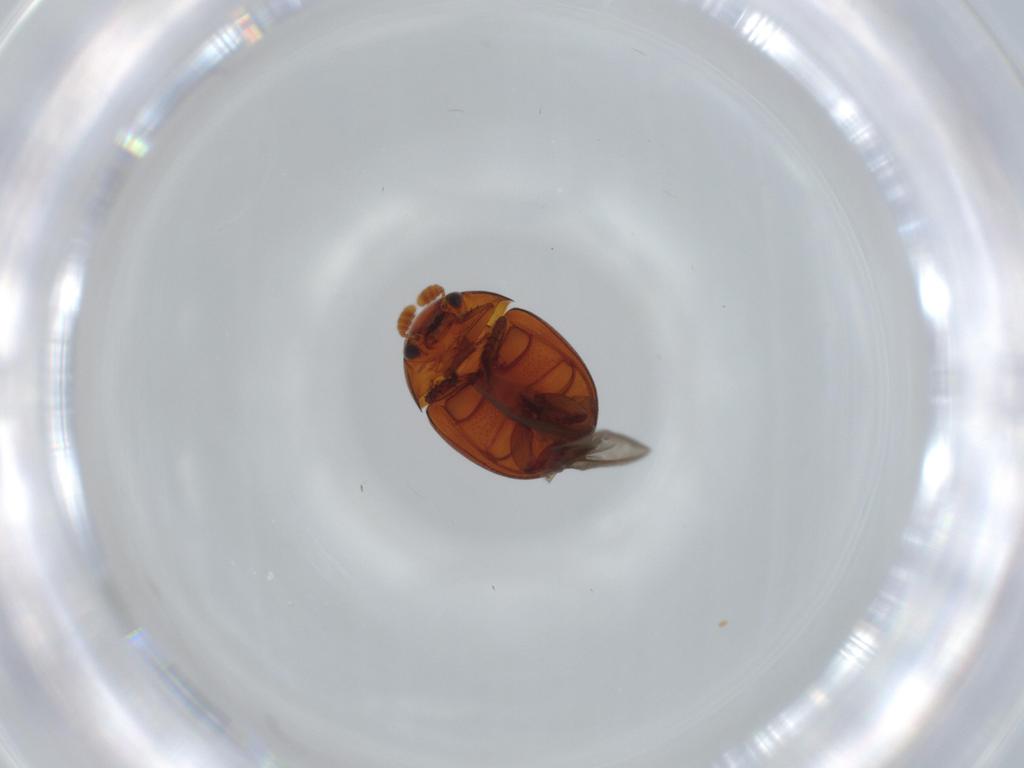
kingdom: Animalia
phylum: Arthropoda
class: Insecta
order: Coleoptera
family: Leiodidae
